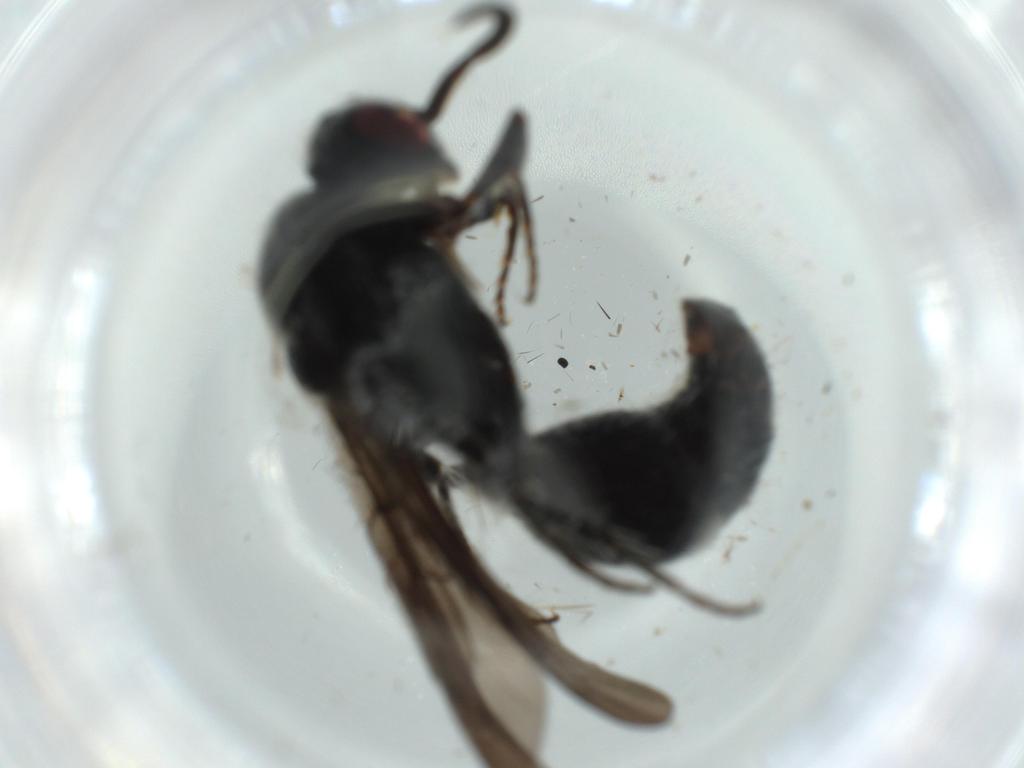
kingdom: Animalia
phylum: Arthropoda
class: Insecta
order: Hymenoptera
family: Mutillidae
